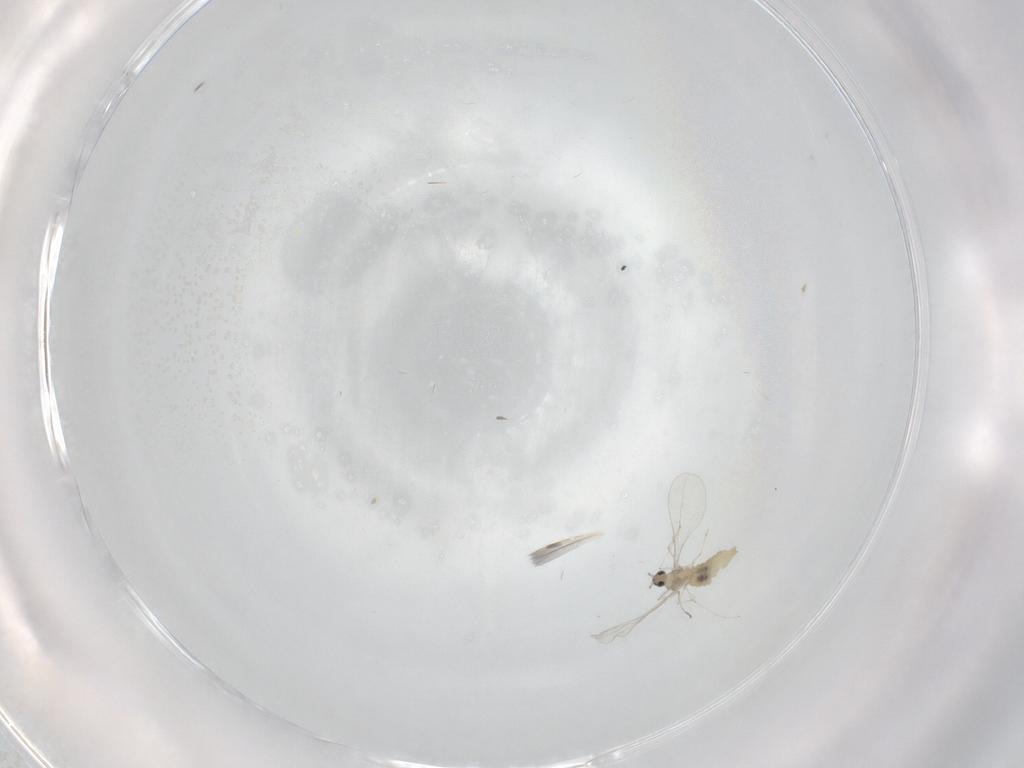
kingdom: Animalia
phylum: Arthropoda
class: Insecta
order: Diptera
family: Cecidomyiidae
